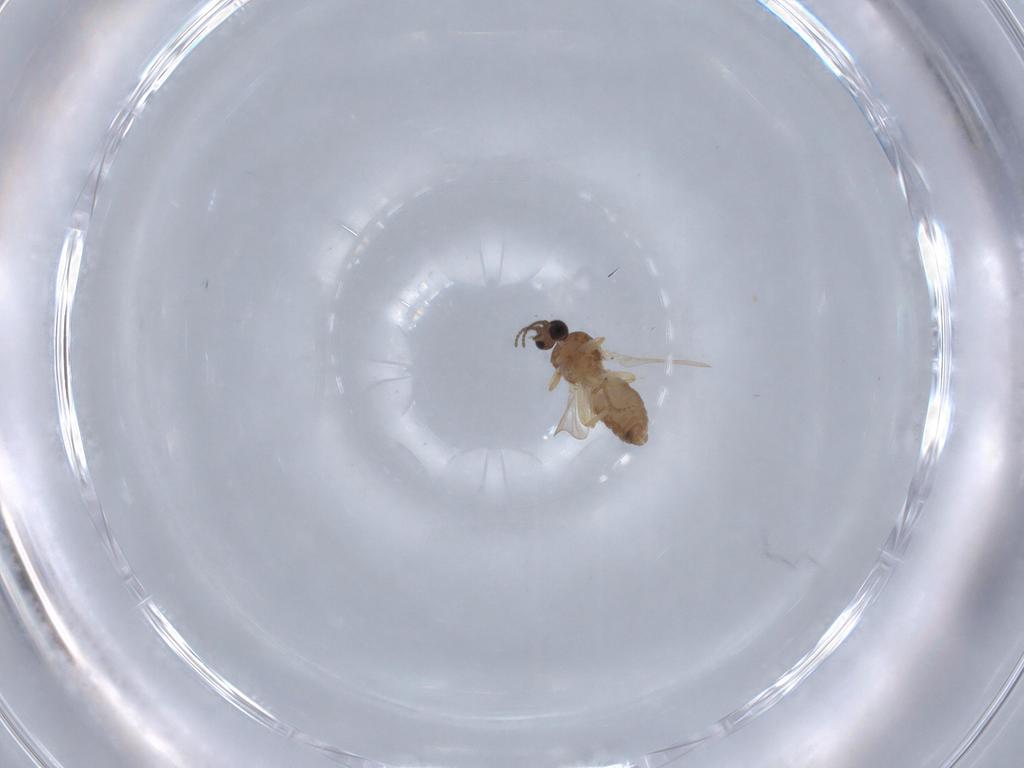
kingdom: Animalia
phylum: Arthropoda
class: Insecta
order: Diptera
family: Ceratopogonidae
